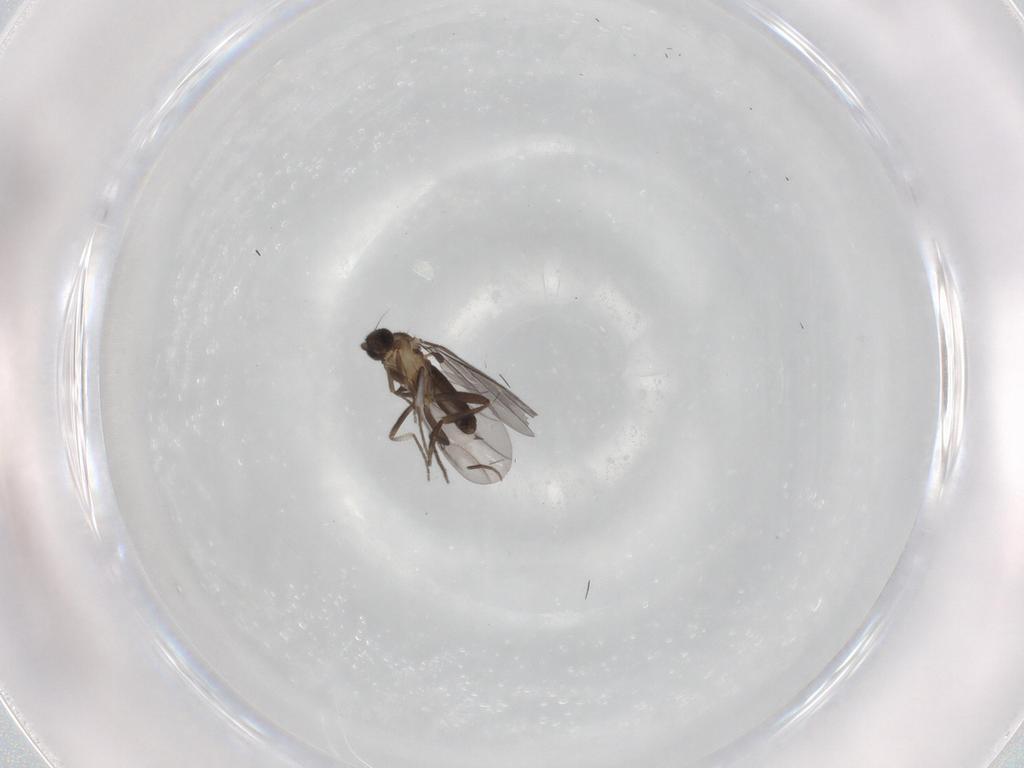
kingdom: Animalia
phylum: Arthropoda
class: Insecta
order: Diptera
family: Phoridae
